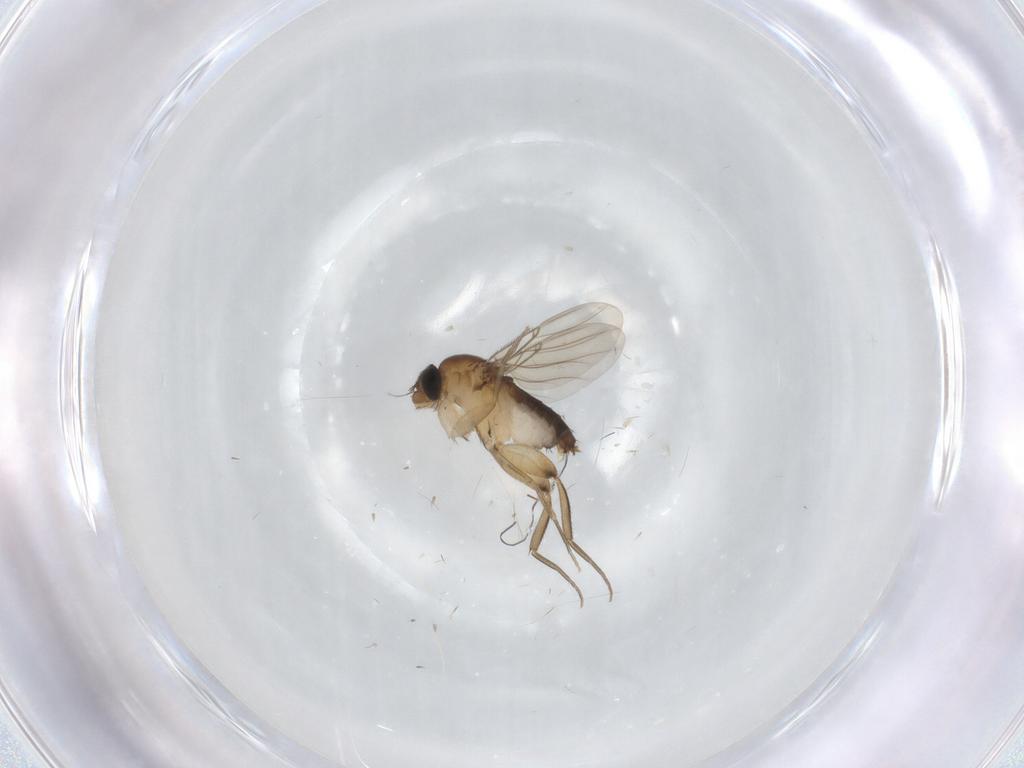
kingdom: Animalia
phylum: Arthropoda
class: Insecta
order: Diptera
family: Phoridae
